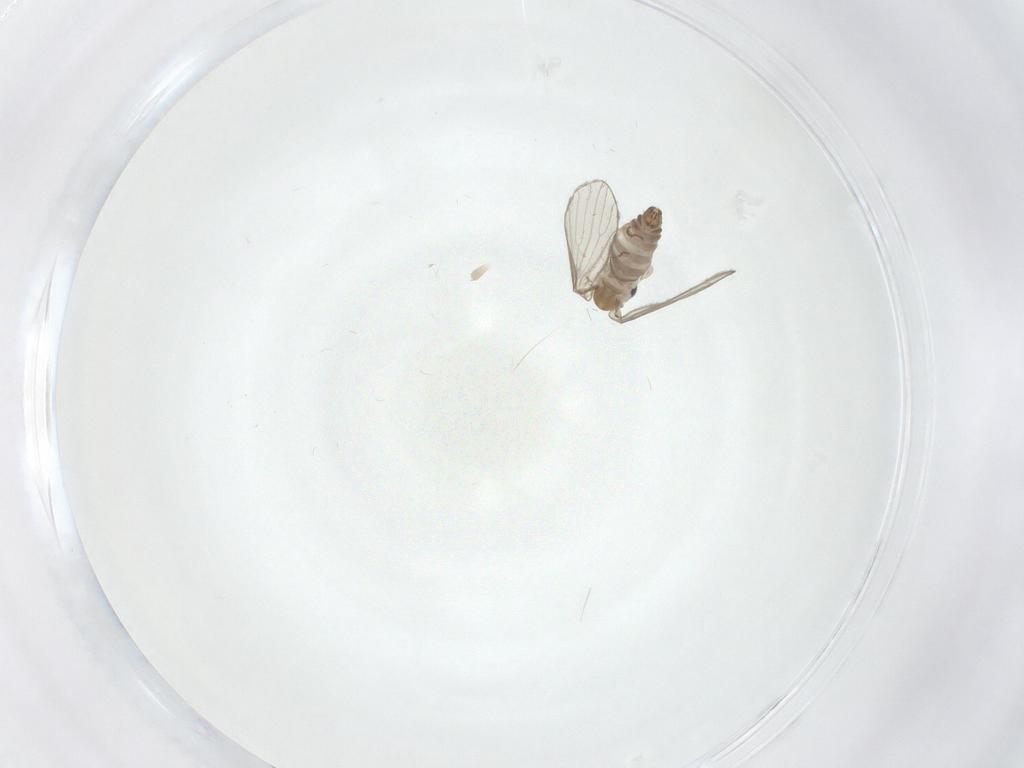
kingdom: Animalia
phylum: Arthropoda
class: Insecta
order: Diptera
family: Psychodidae
